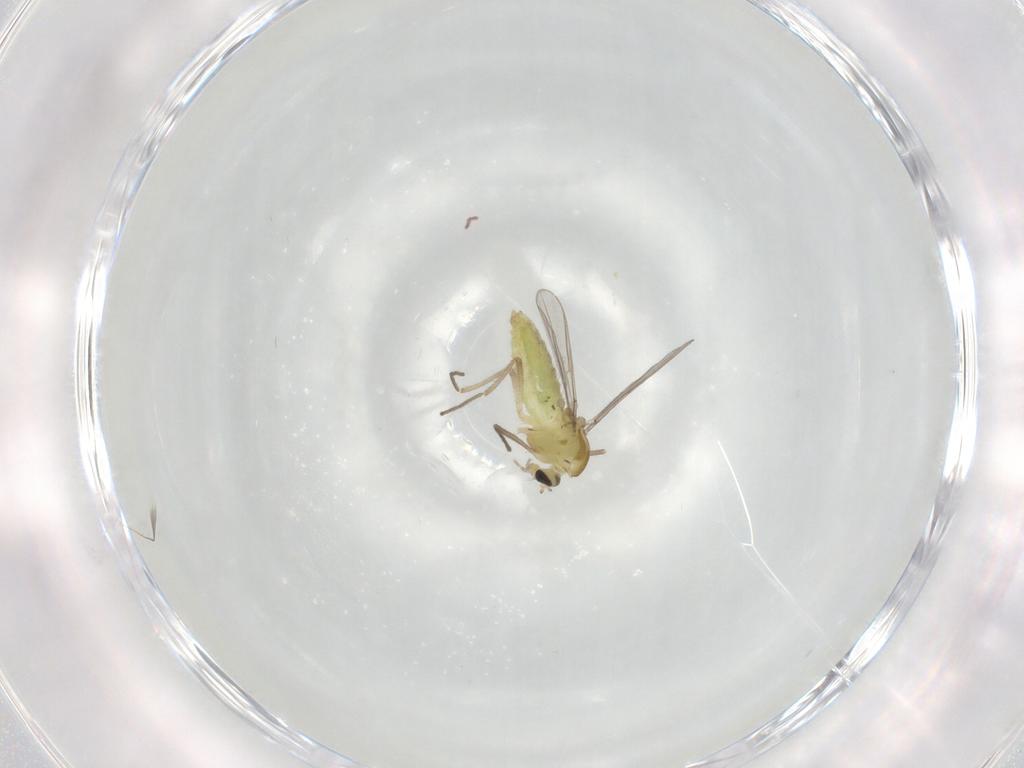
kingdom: Animalia
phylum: Arthropoda
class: Insecta
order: Diptera
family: Chironomidae
